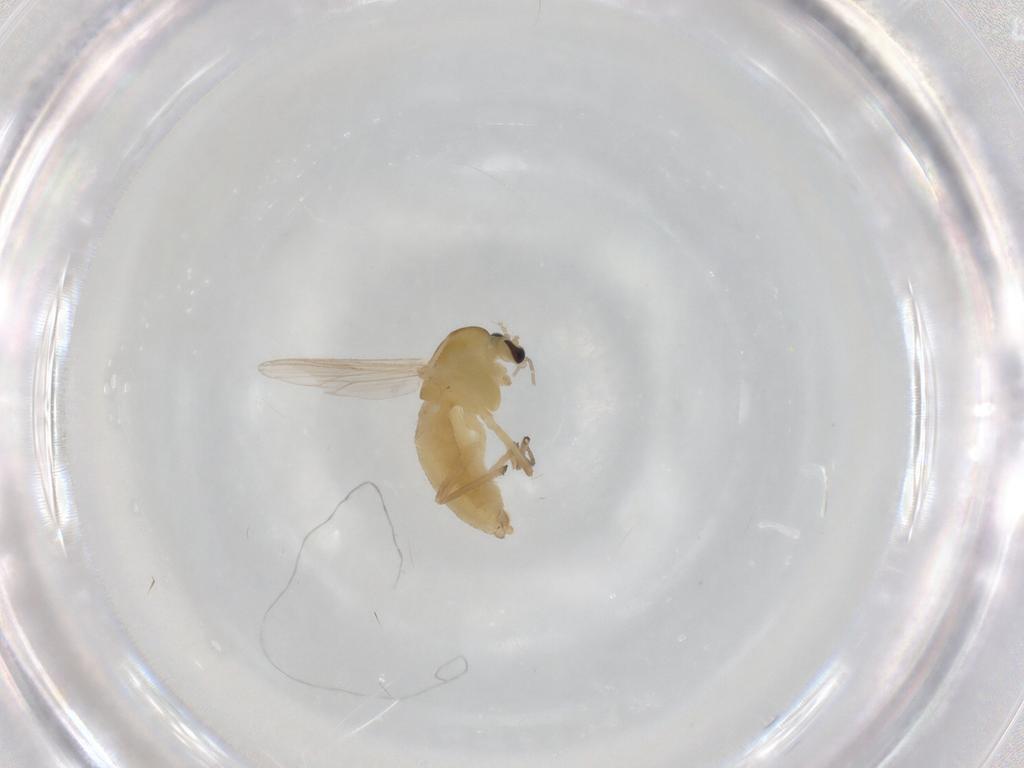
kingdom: Animalia
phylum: Arthropoda
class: Insecta
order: Diptera
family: Chironomidae
